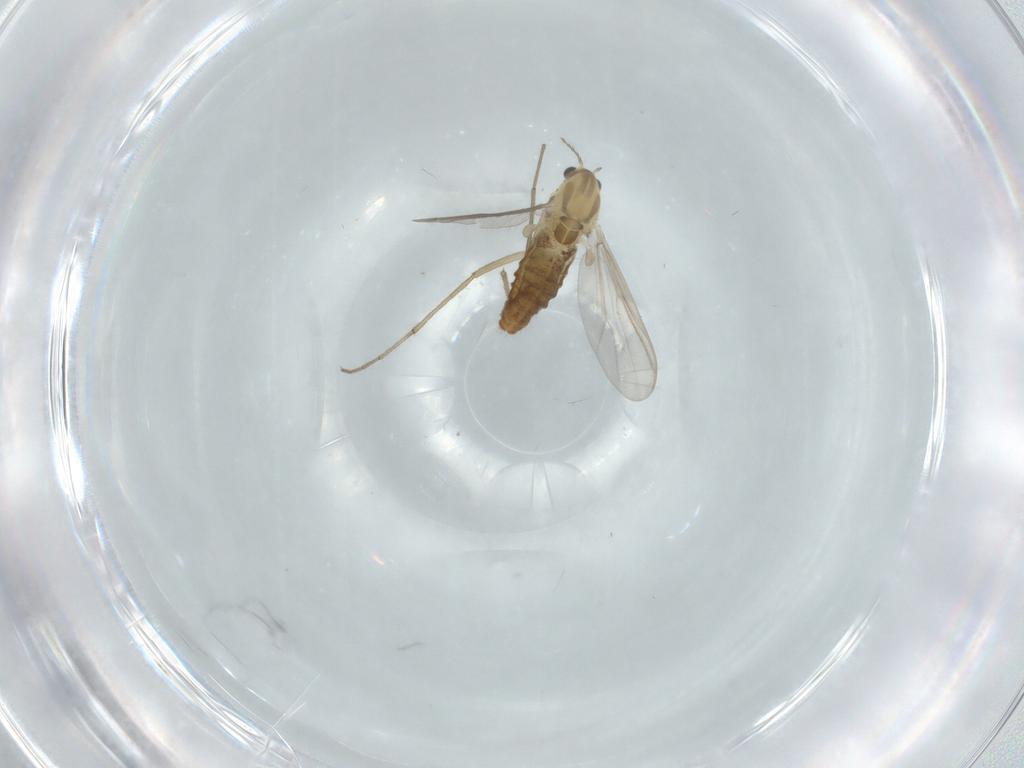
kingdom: Animalia
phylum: Arthropoda
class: Insecta
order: Diptera
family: Chironomidae
